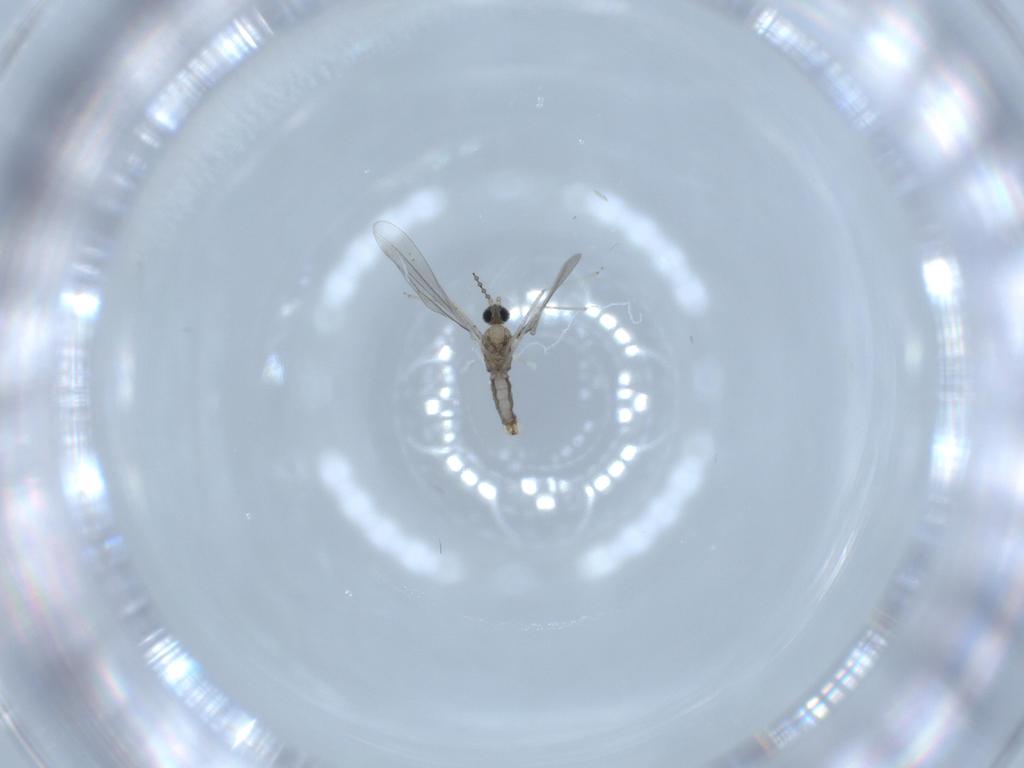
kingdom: Animalia
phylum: Arthropoda
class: Insecta
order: Diptera
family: Cecidomyiidae
